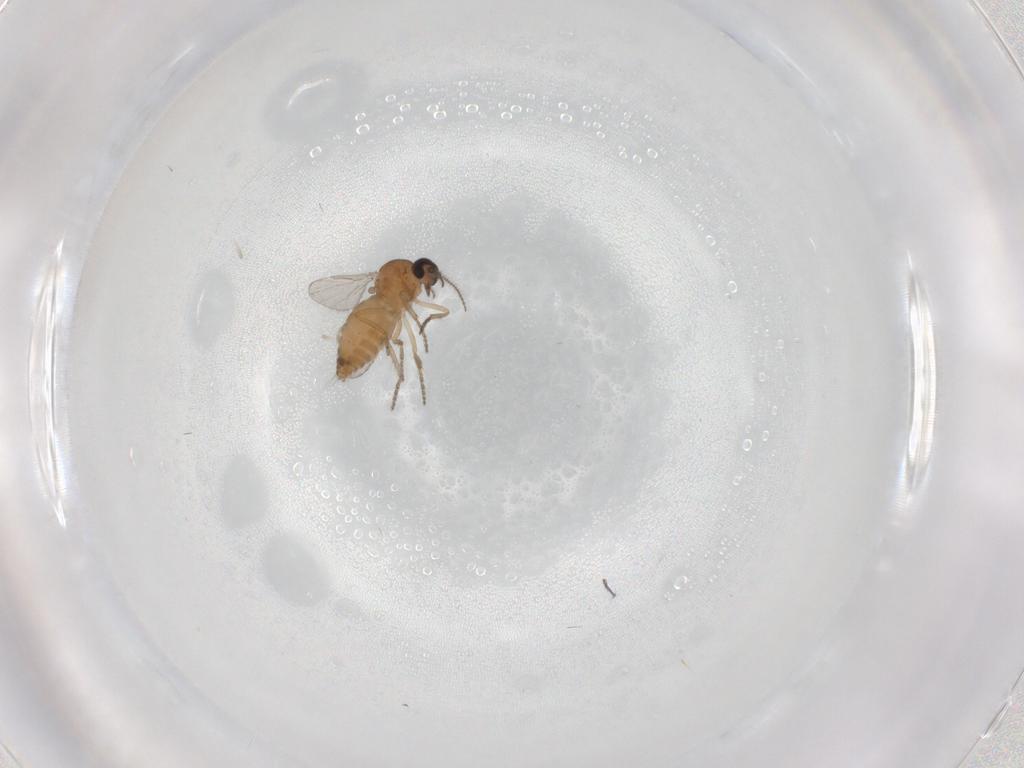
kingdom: Animalia
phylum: Arthropoda
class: Insecta
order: Diptera
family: Ceratopogonidae
